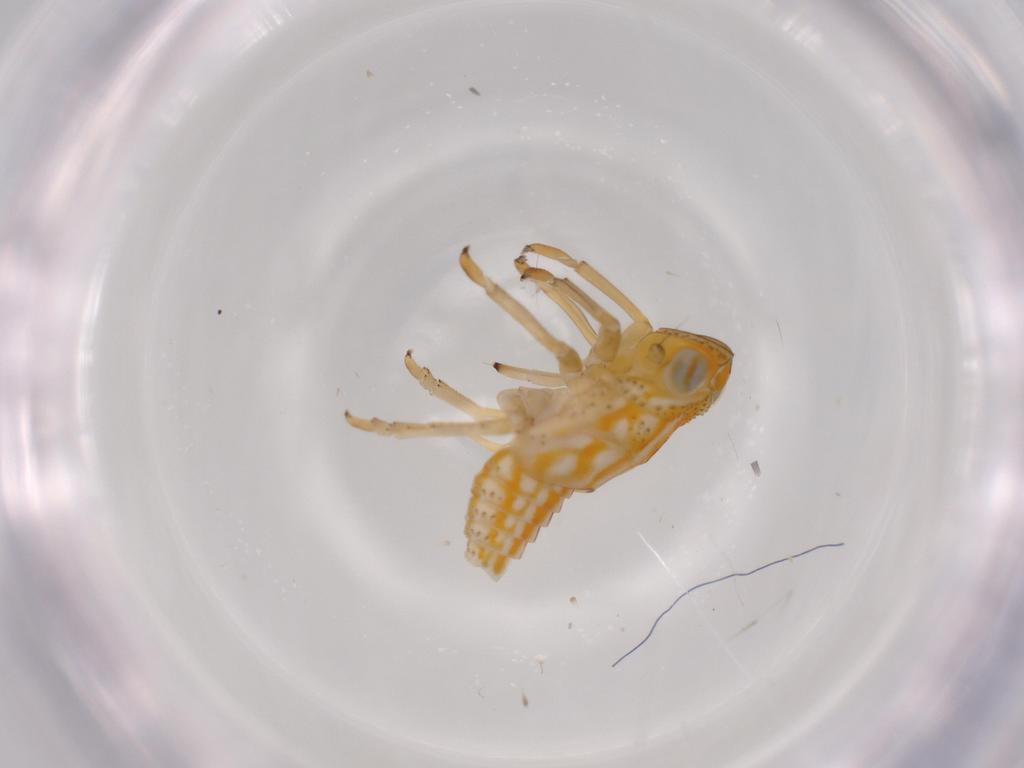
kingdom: Animalia
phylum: Arthropoda
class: Insecta
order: Hemiptera
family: Issidae
